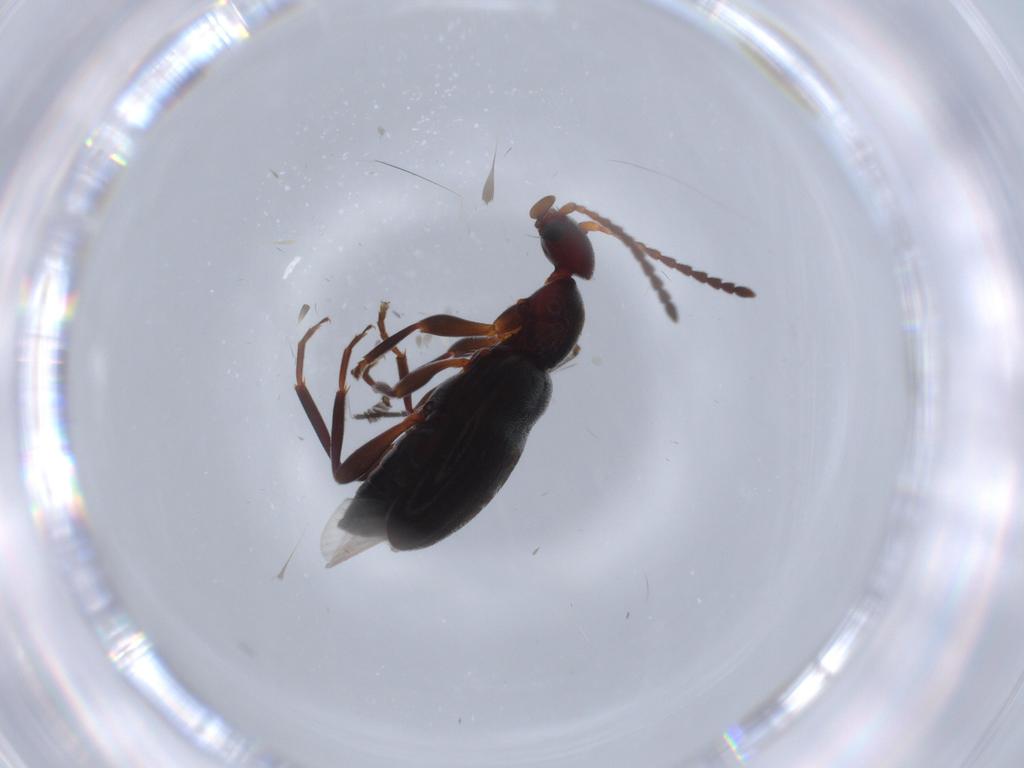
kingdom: Animalia
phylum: Arthropoda
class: Insecta
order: Coleoptera
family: Anthicidae
